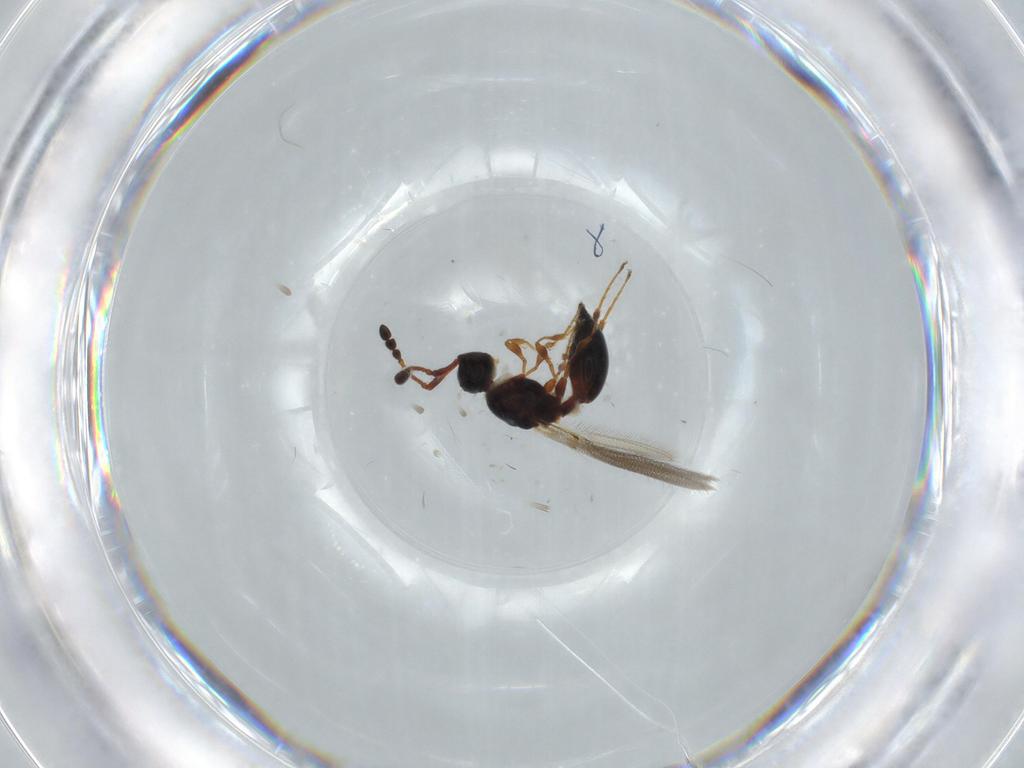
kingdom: Animalia
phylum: Arthropoda
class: Insecta
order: Hymenoptera
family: Diapriidae
